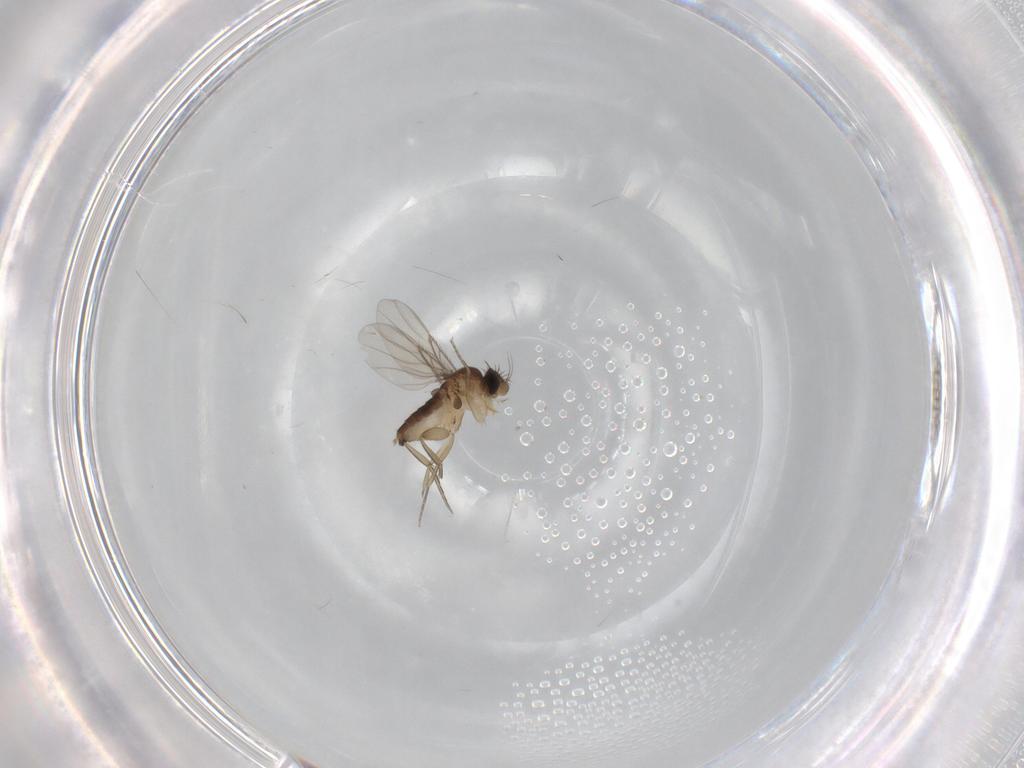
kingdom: Animalia
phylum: Arthropoda
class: Insecta
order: Diptera
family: Phoridae
